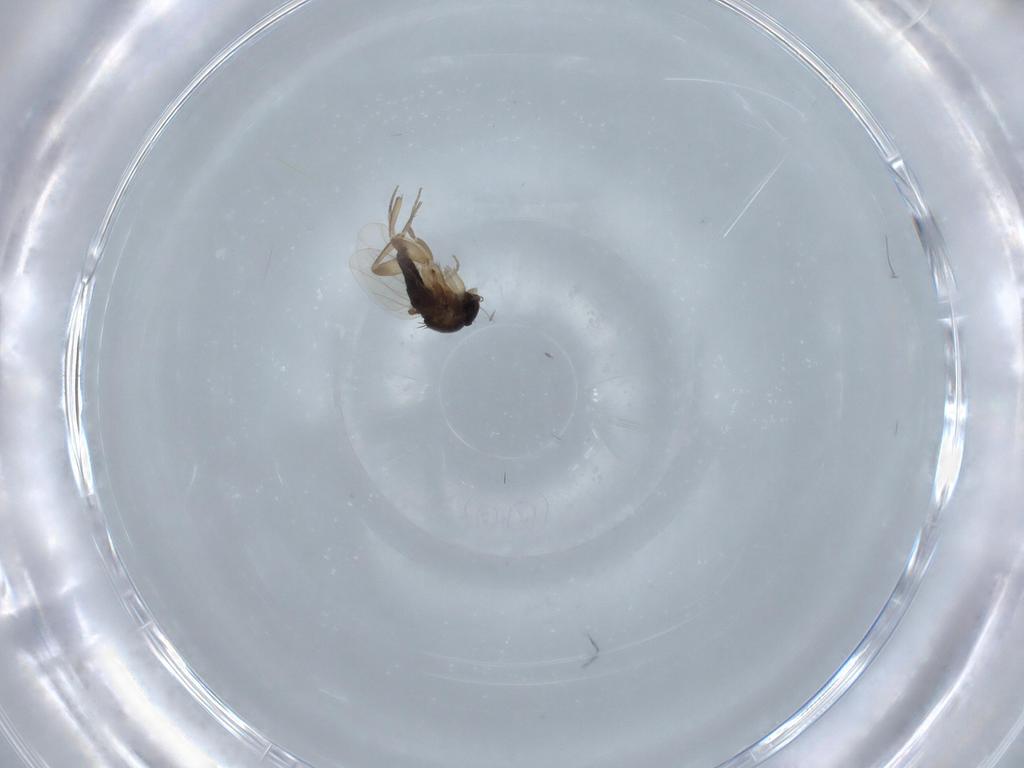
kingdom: Animalia
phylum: Arthropoda
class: Insecta
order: Diptera
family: Phoridae
